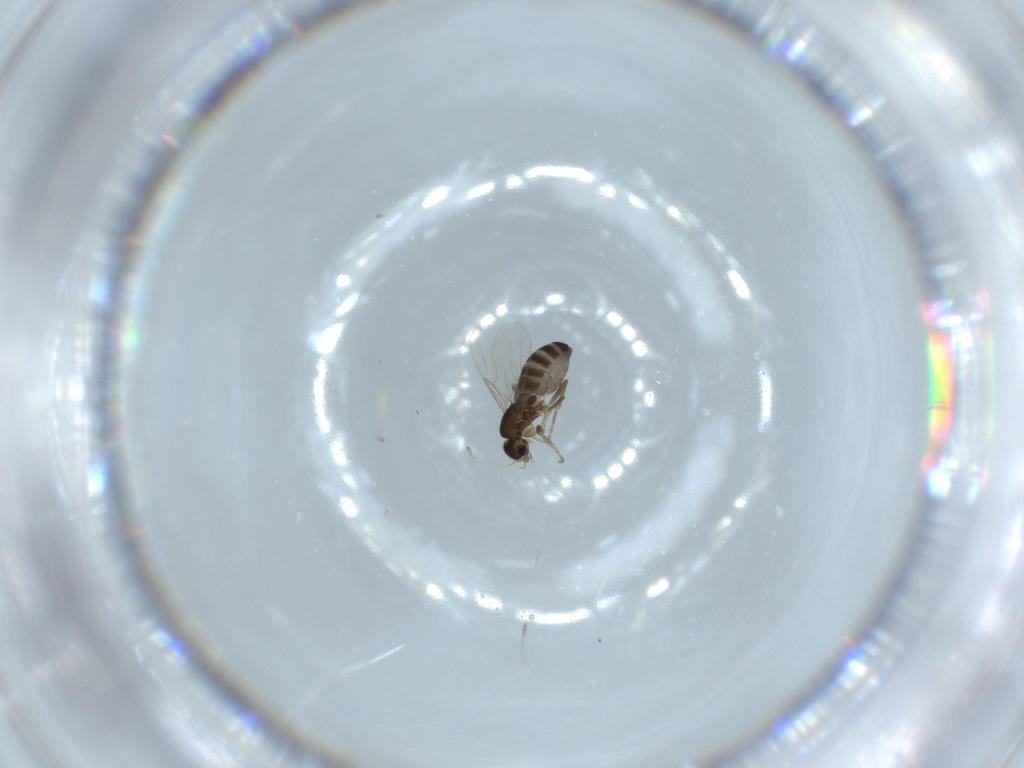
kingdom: Animalia
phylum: Arthropoda
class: Insecta
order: Diptera
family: Phoridae
